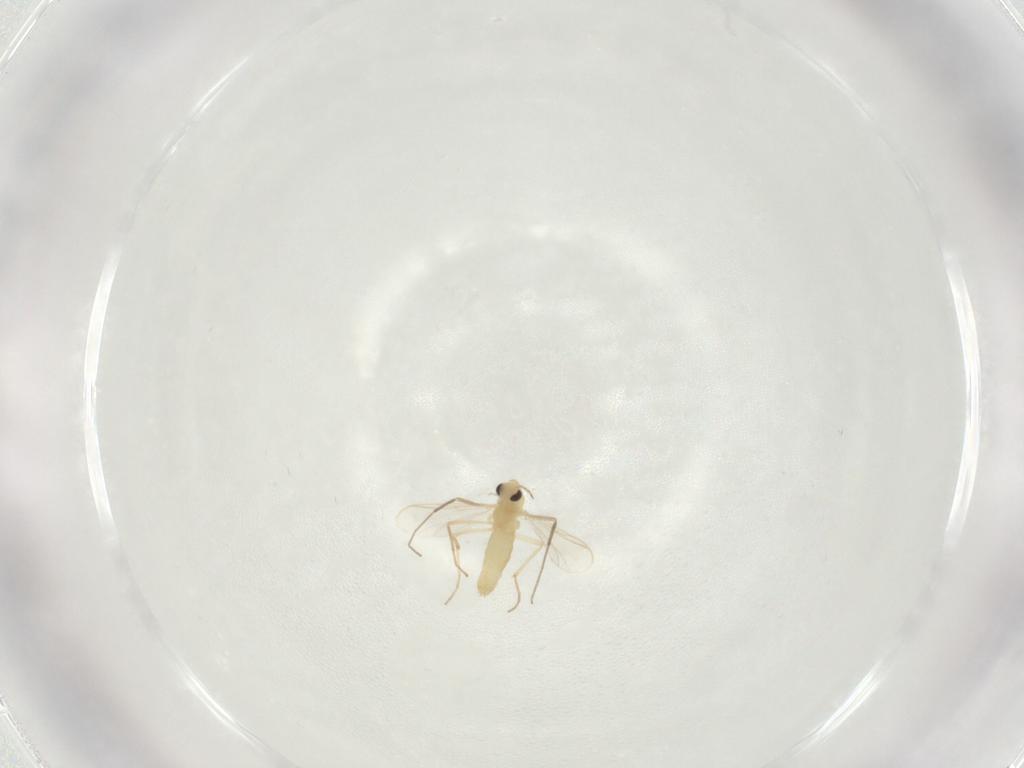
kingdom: Animalia
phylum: Arthropoda
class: Insecta
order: Diptera
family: Chironomidae
